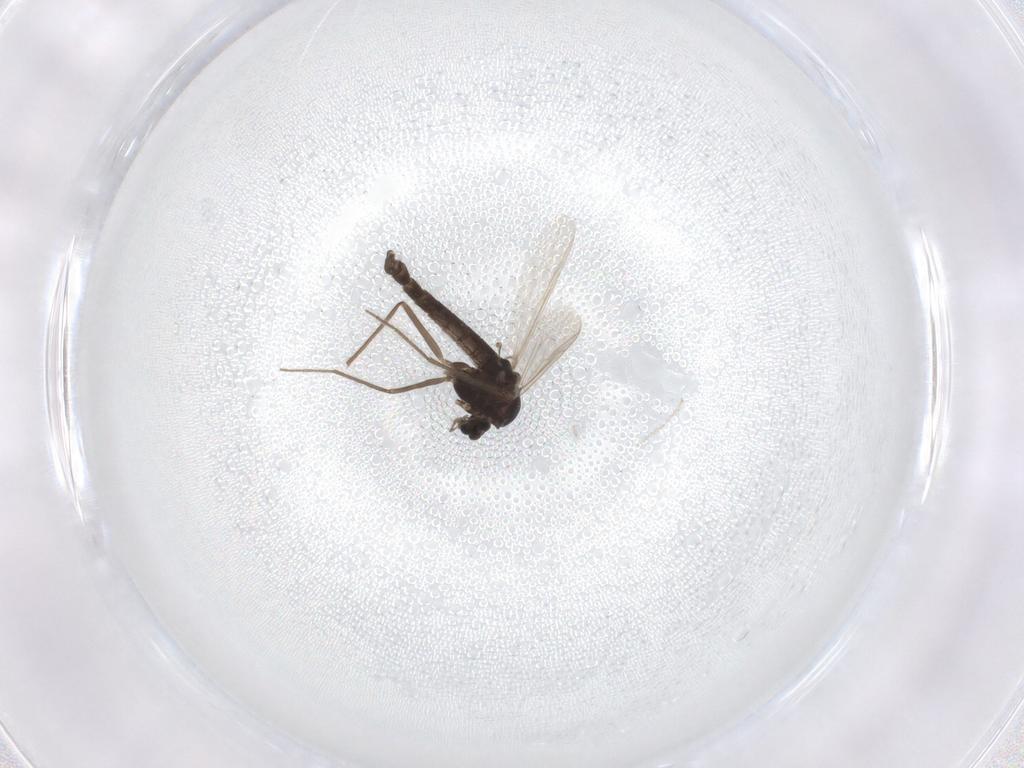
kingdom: Animalia
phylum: Arthropoda
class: Insecta
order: Diptera
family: Chironomidae
